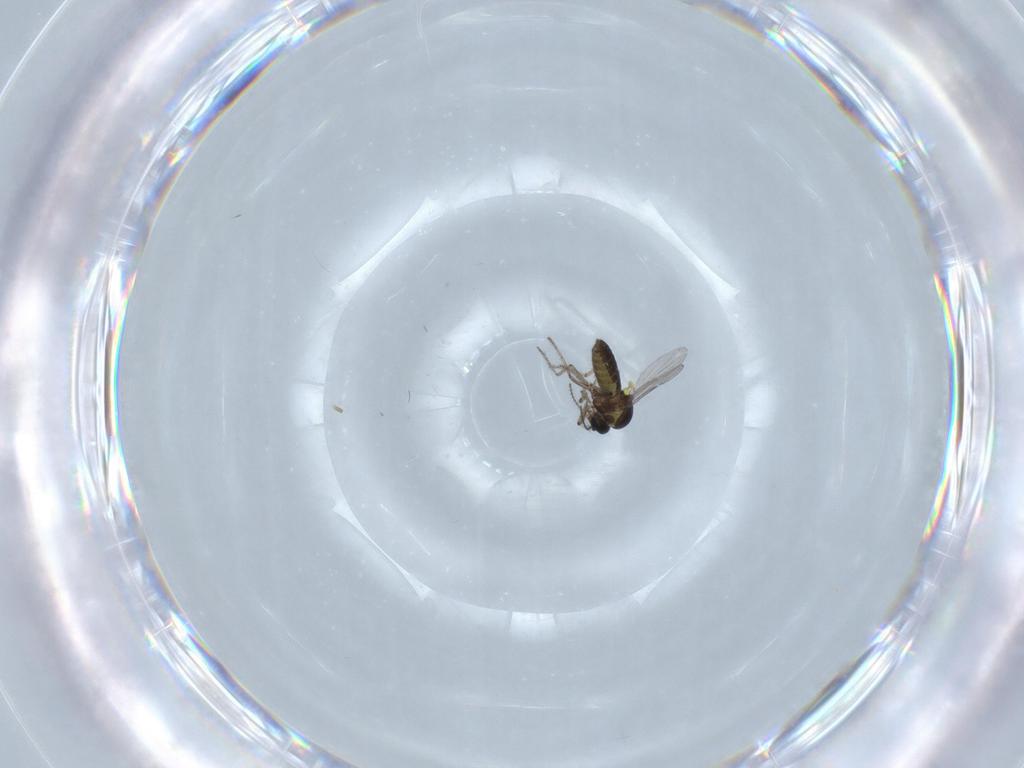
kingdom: Animalia
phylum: Arthropoda
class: Insecta
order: Diptera
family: Ceratopogonidae
